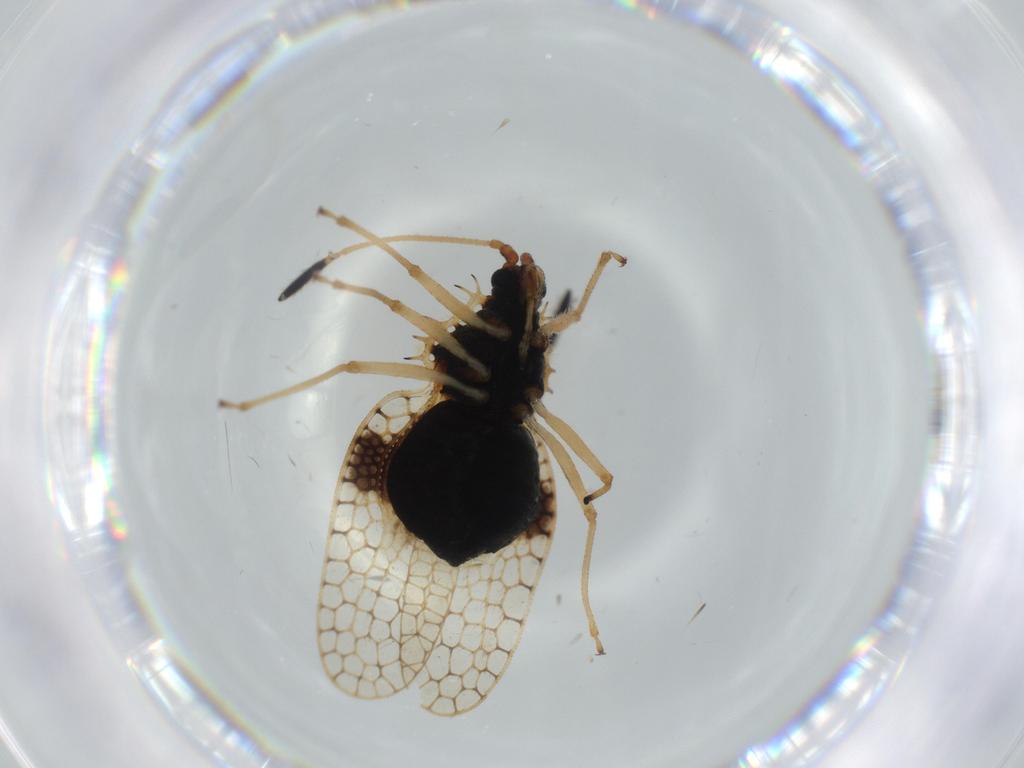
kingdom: Animalia
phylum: Arthropoda
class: Insecta
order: Hemiptera
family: Tingidae
